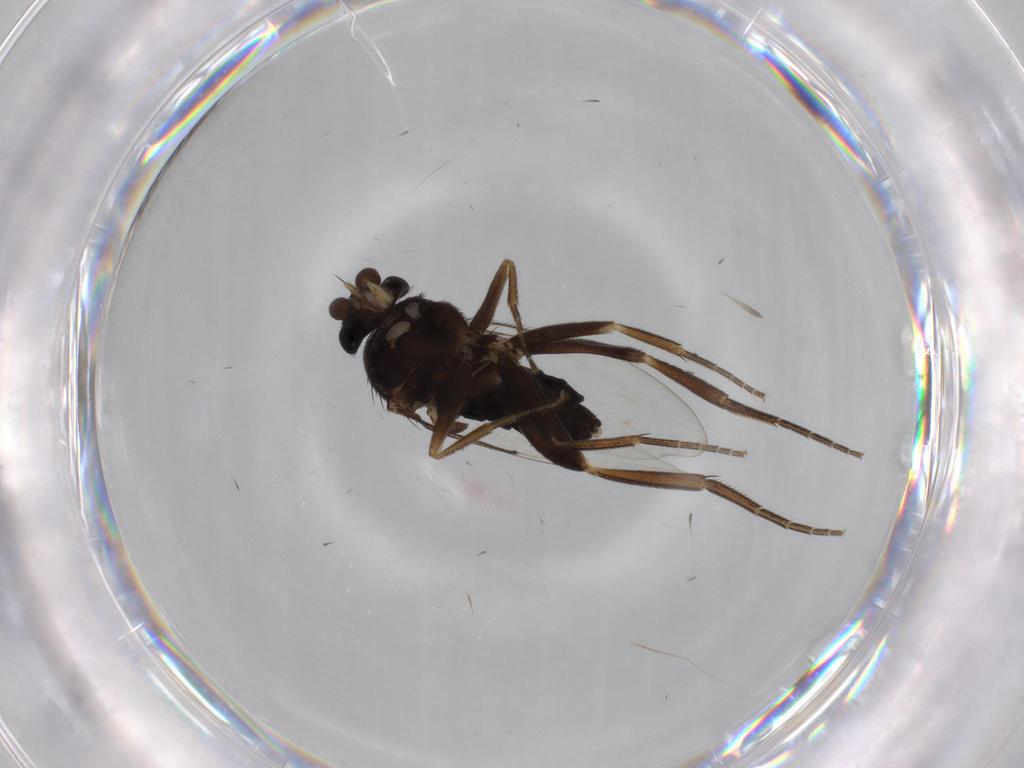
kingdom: Animalia
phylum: Arthropoda
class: Insecta
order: Diptera
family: Phoridae
